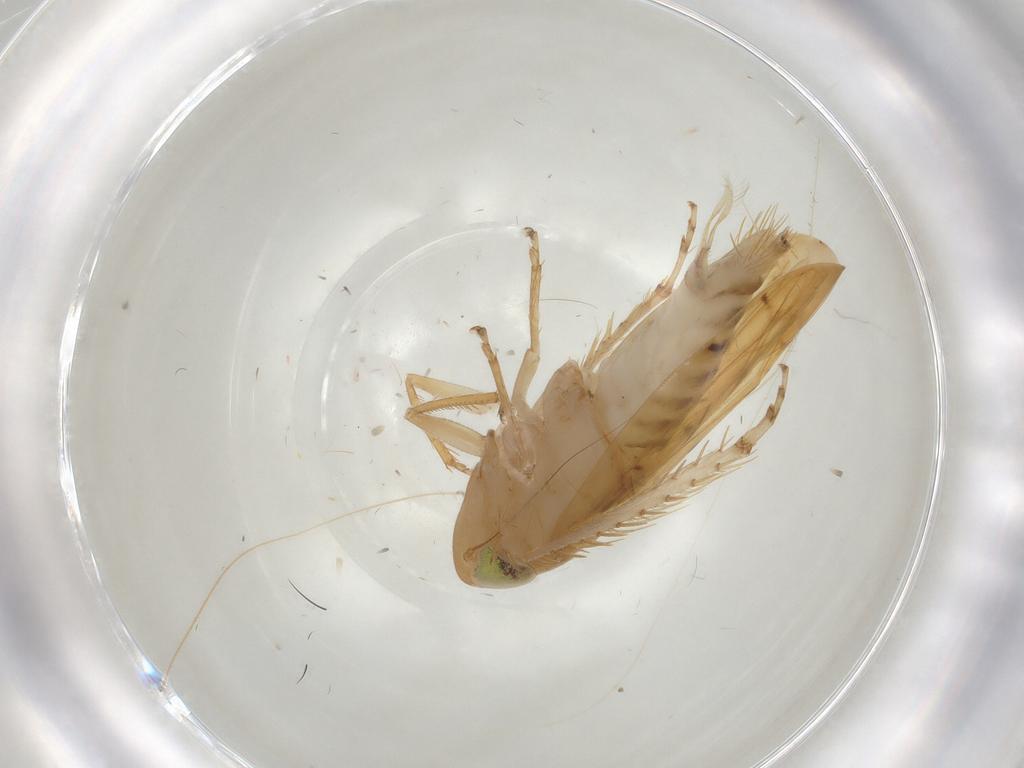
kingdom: Animalia
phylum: Arthropoda
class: Insecta
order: Hemiptera
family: Cicadellidae
